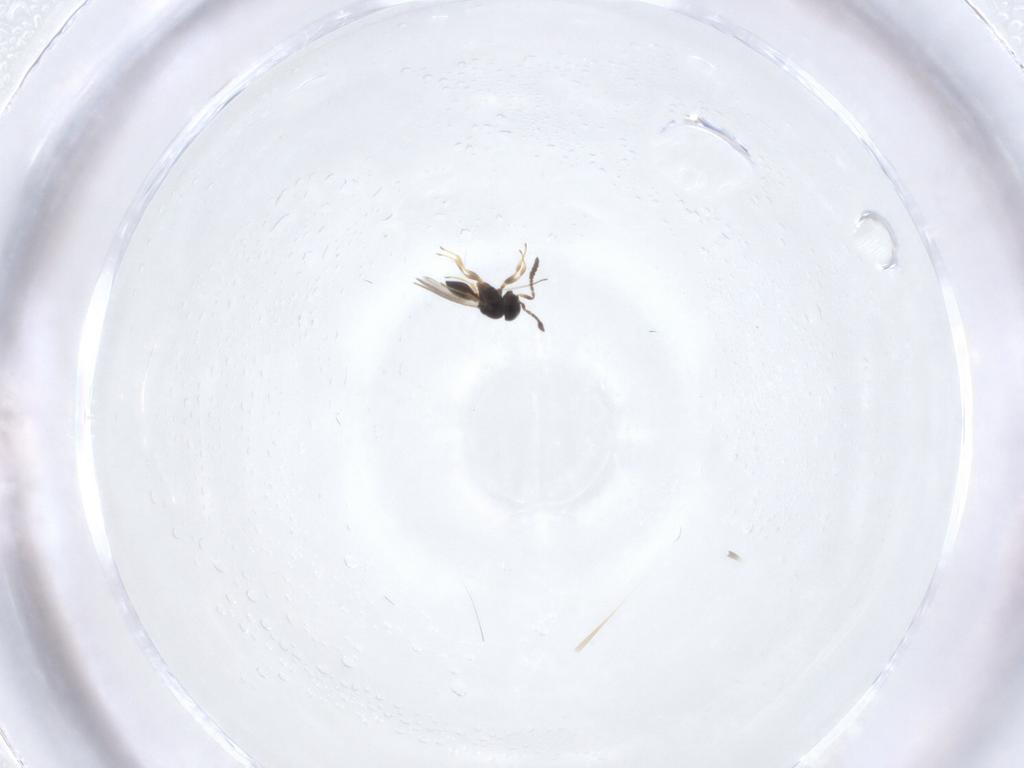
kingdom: Animalia
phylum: Arthropoda
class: Insecta
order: Hymenoptera
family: Scelionidae
